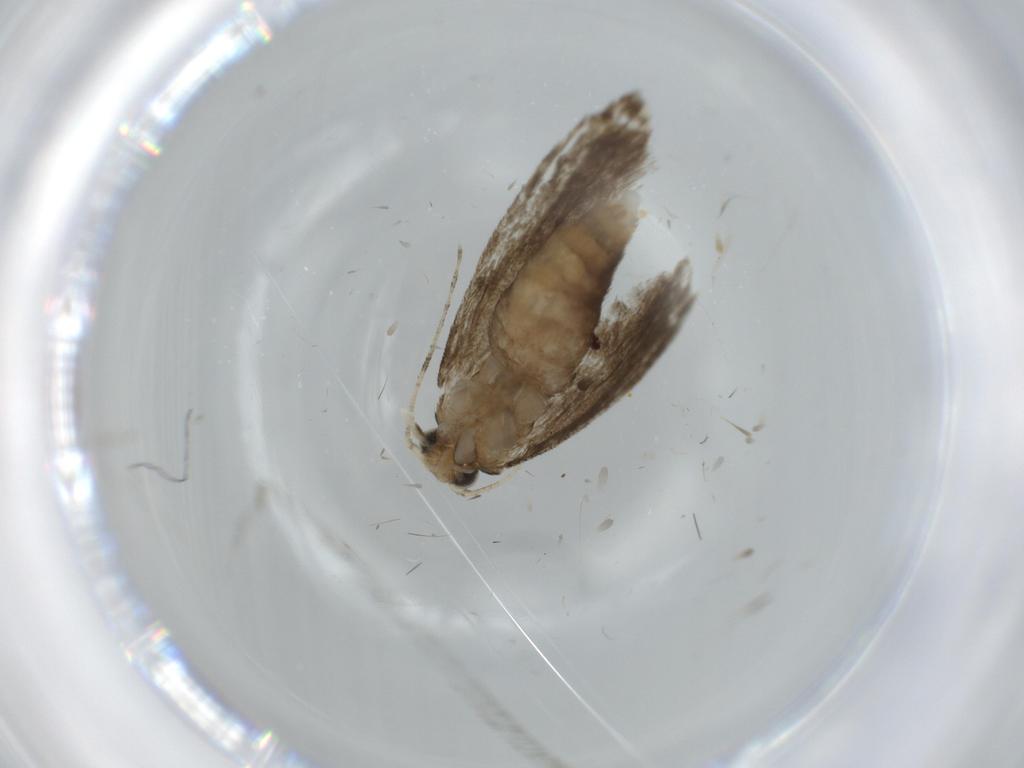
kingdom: Animalia
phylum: Arthropoda
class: Insecta
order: Lepidoptera
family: Tineidae
